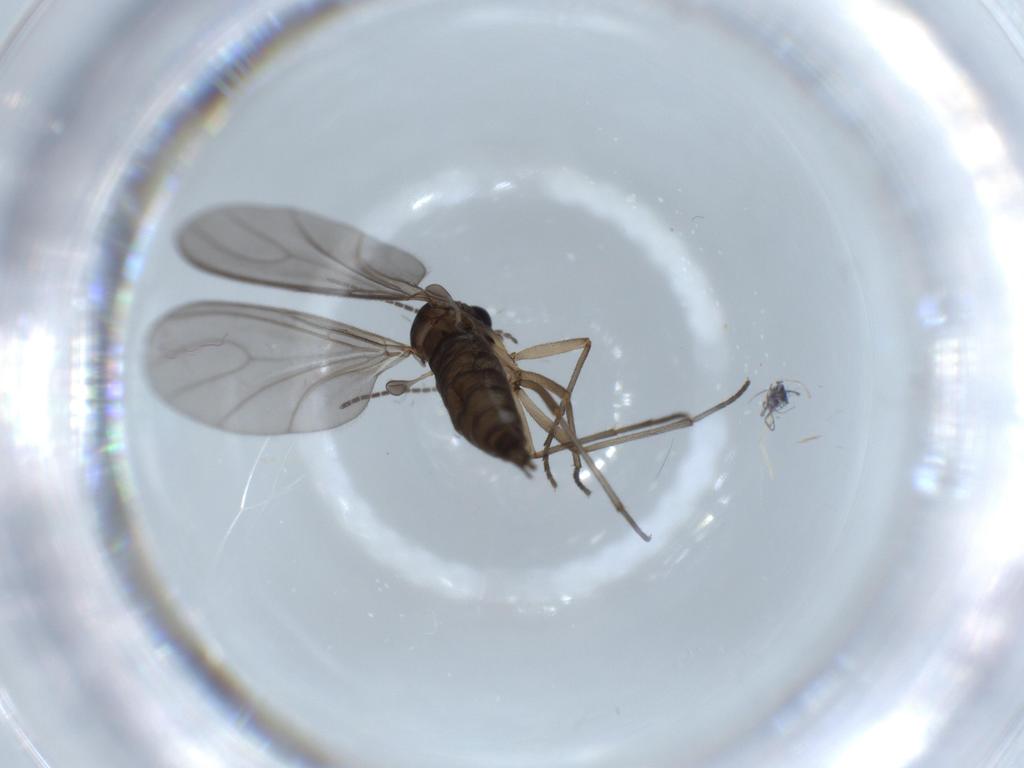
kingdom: Animalia
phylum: Arthropoda
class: Insecta
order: Diptera
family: Sciaridae
